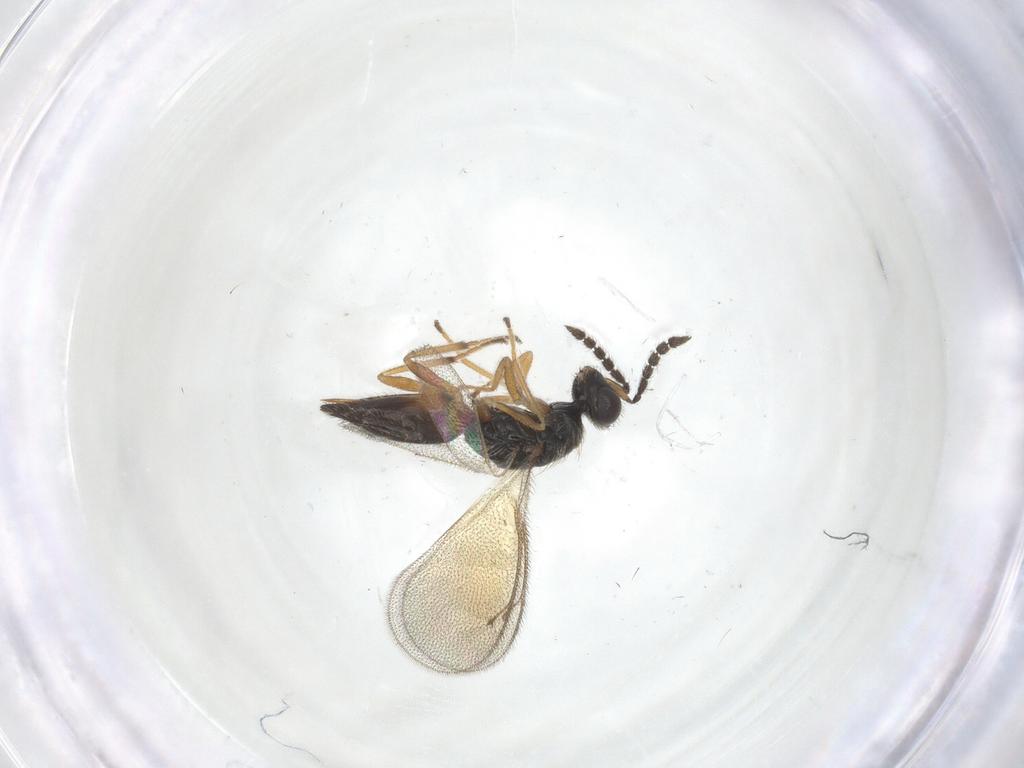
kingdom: Animalia
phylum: Arthropoda
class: Insecta
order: Hymenoptera
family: Eulophidae
